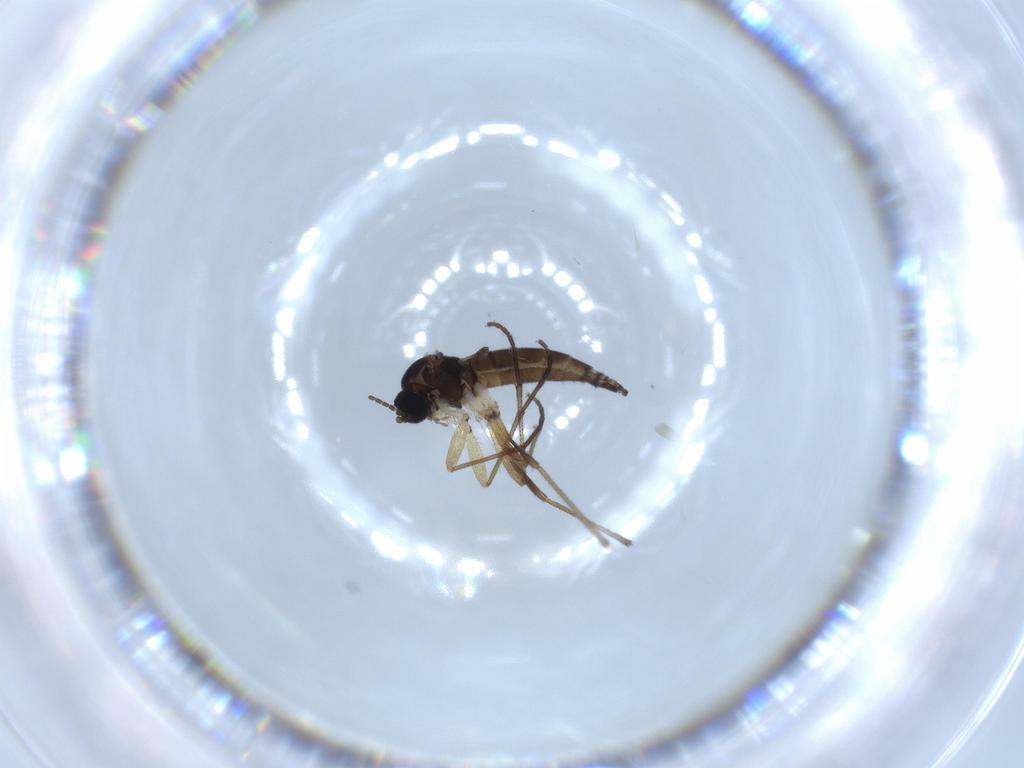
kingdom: Animalia
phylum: Arthropoda
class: Insecta
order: Diptera
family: Sciaridae
